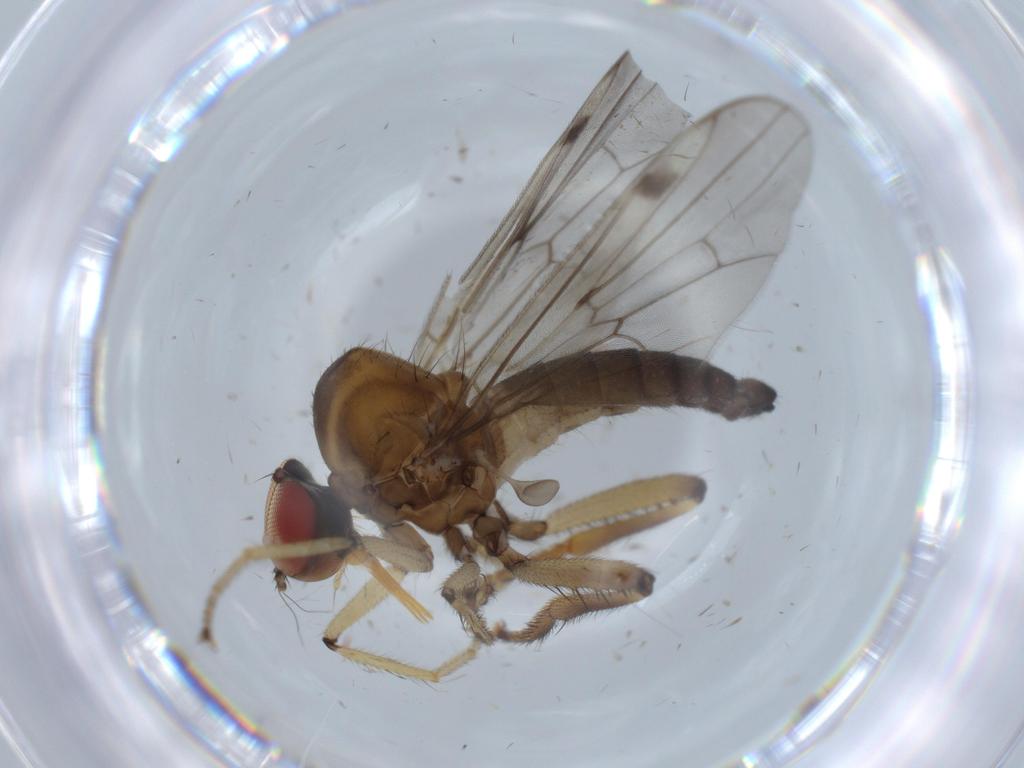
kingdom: Animalia
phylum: Arthropoda
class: Insecta
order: Diptera
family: Hybotidae
